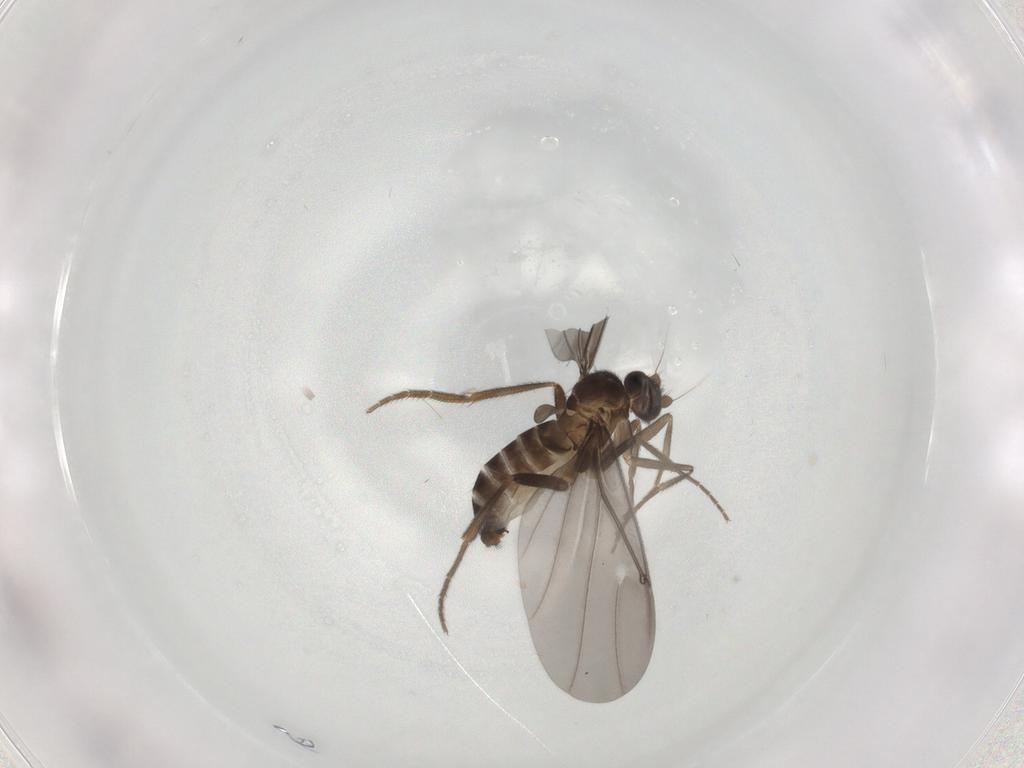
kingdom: Animalia
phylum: Arthropoda
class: Insecta
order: Diptera
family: Phoridae
